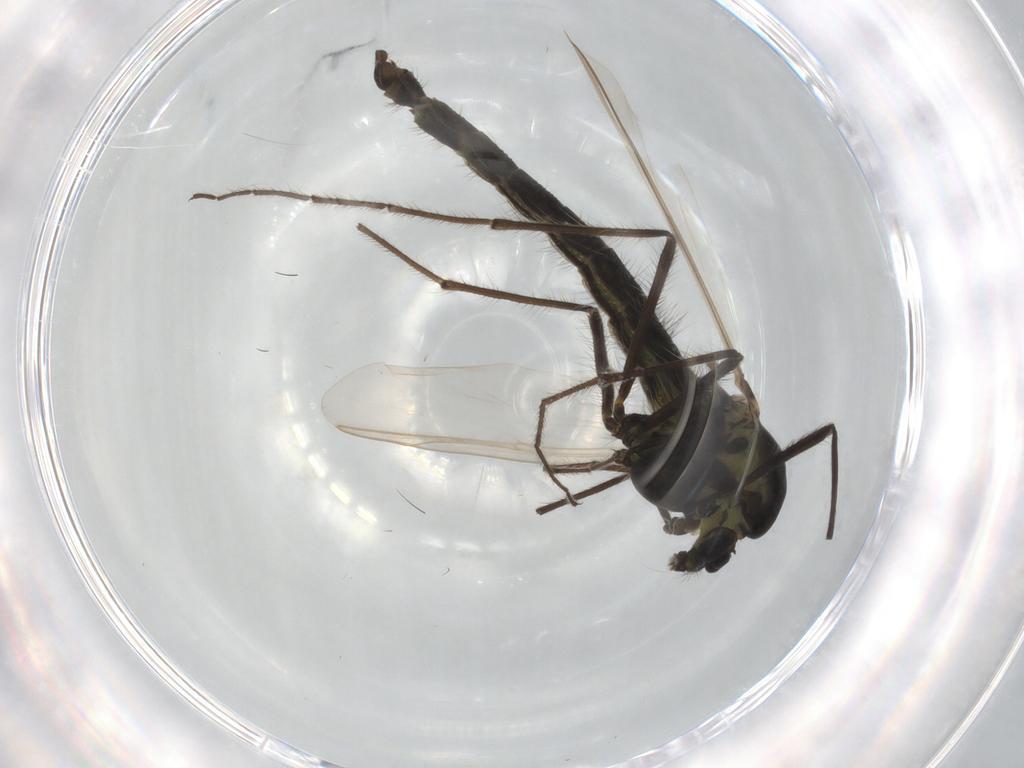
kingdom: Animalia
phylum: Arthropoda
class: Insecta
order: Diptera
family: Sciaridae
